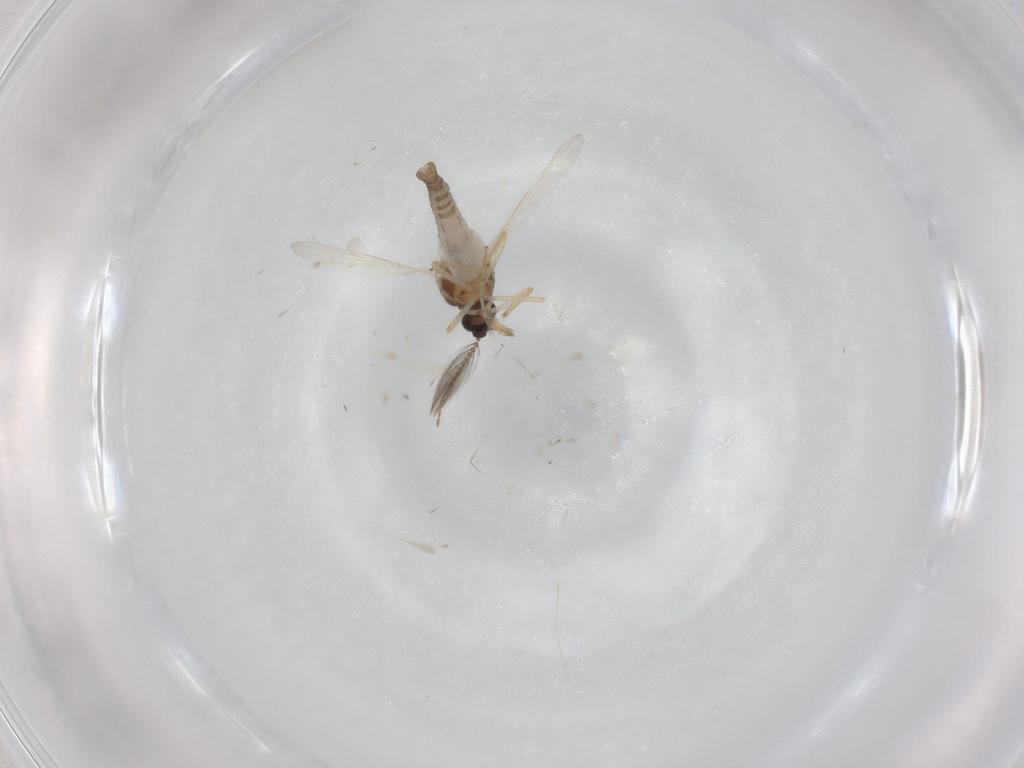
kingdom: Animalia
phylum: Arthropoda
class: Insecta
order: Diptera
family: Ceratopogonidae
